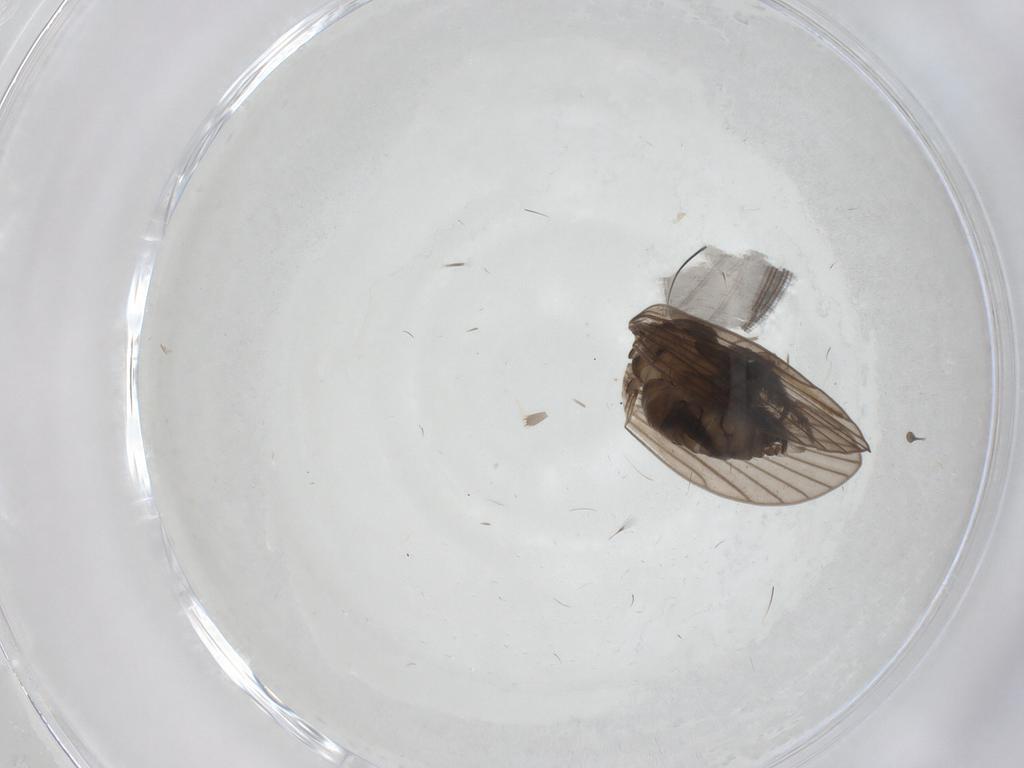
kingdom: Animalia
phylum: Arthropoda
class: Insecta
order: Diptera
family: Psychodidae
